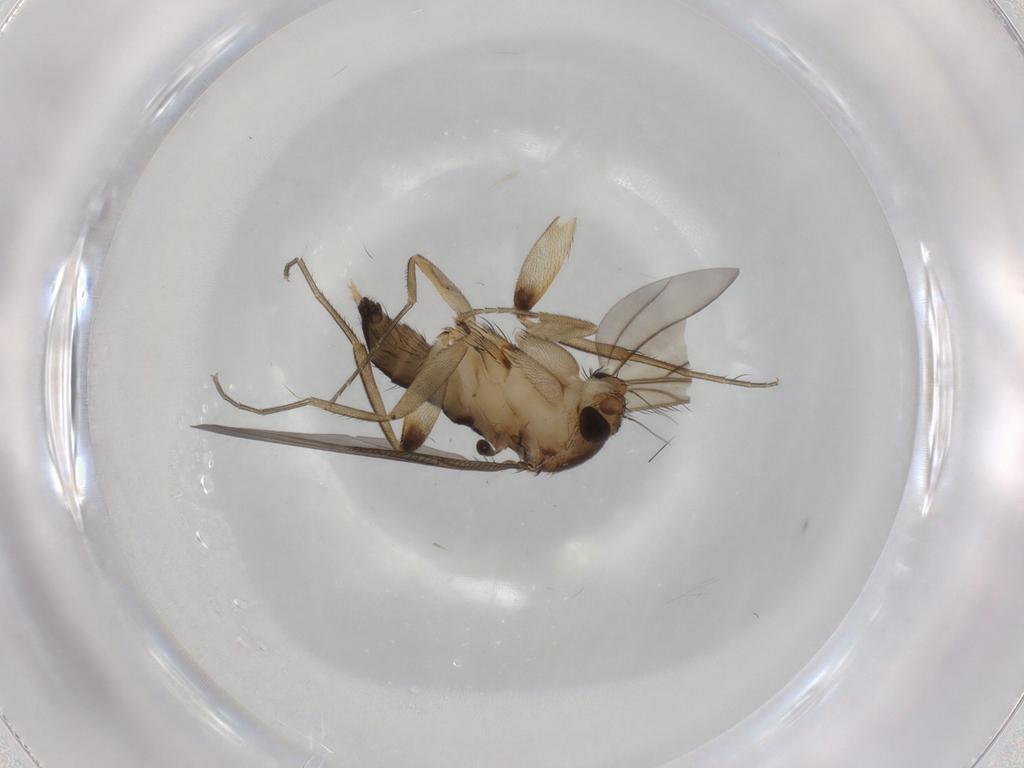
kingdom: Animalia
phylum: Arthropoda
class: Insecta
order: Diptera
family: Phoridae
